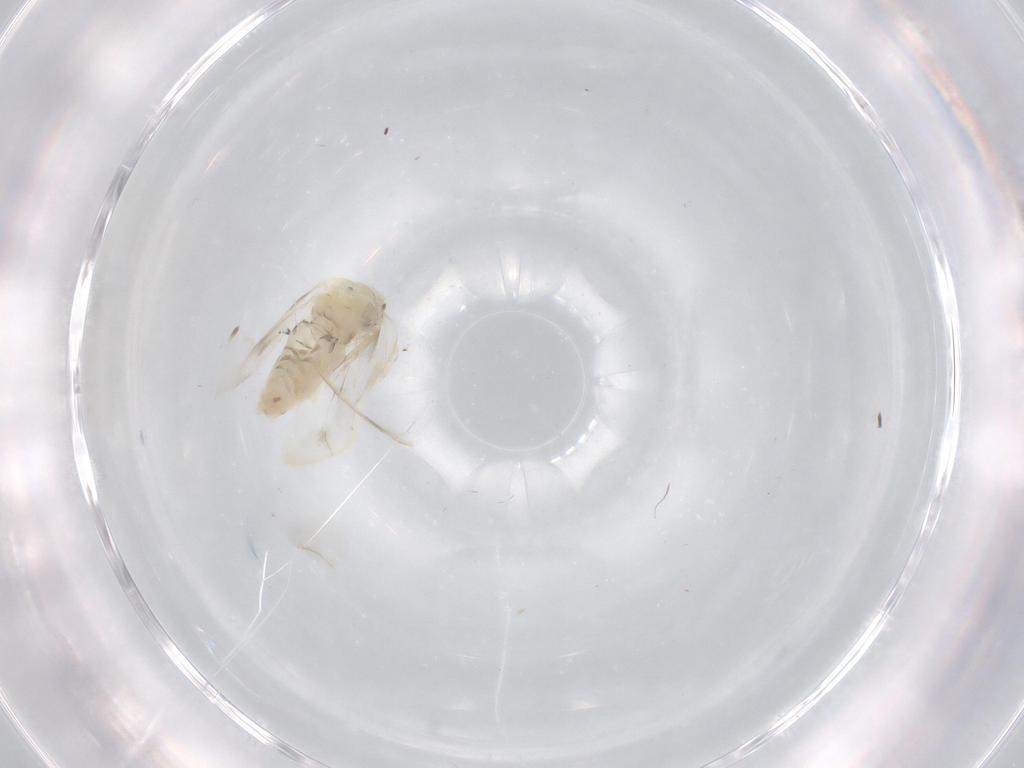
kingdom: Animalia
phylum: Arthropoda
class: Insecta
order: Hemiptera
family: Aleyrodidae
